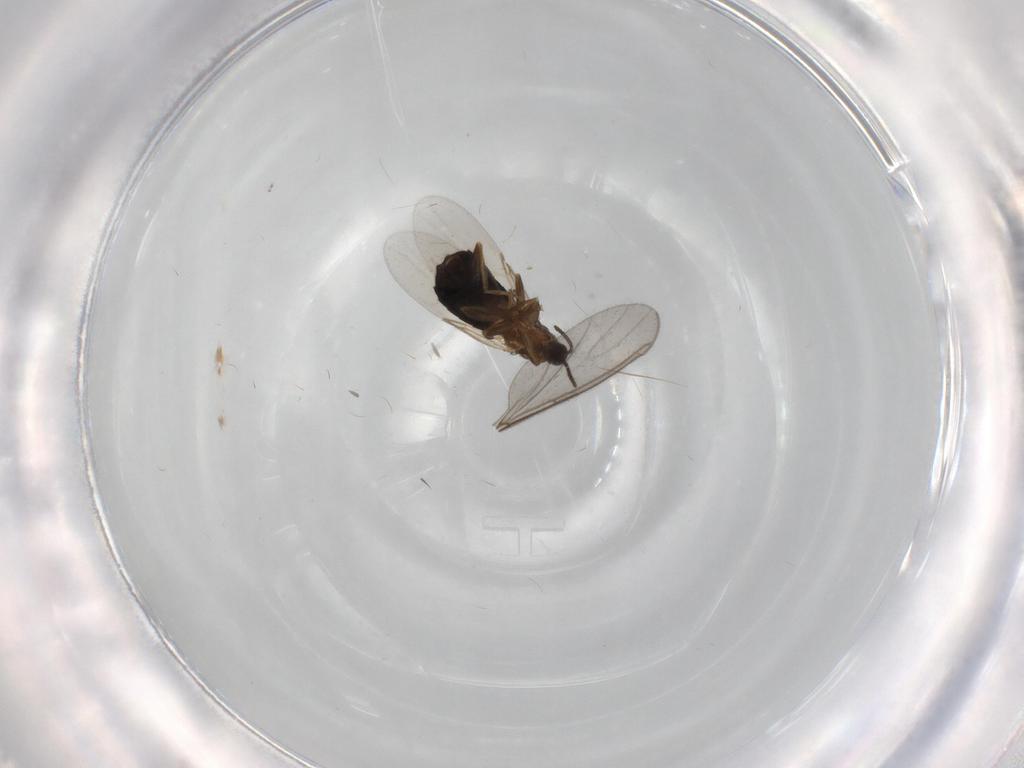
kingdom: Animalia
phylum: Arthropoda
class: Insecta
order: Diptera
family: Scatopsidae
